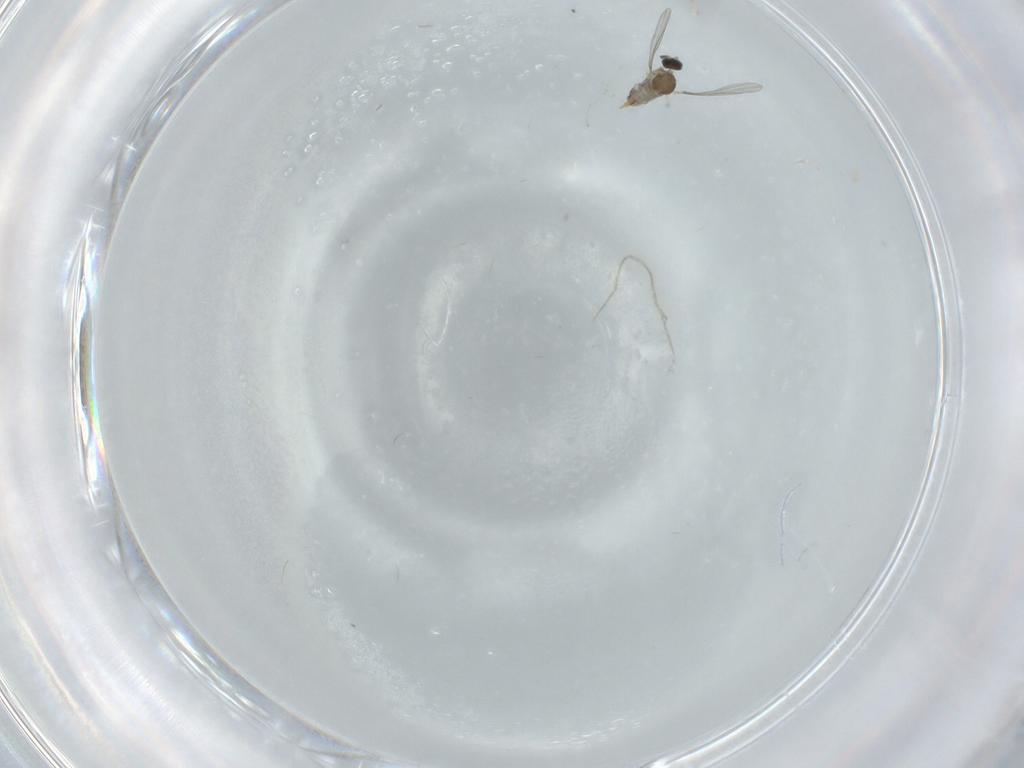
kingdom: Animalia
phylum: Arthropoda
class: Insecta
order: Diptera
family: Cecidomyiidae
